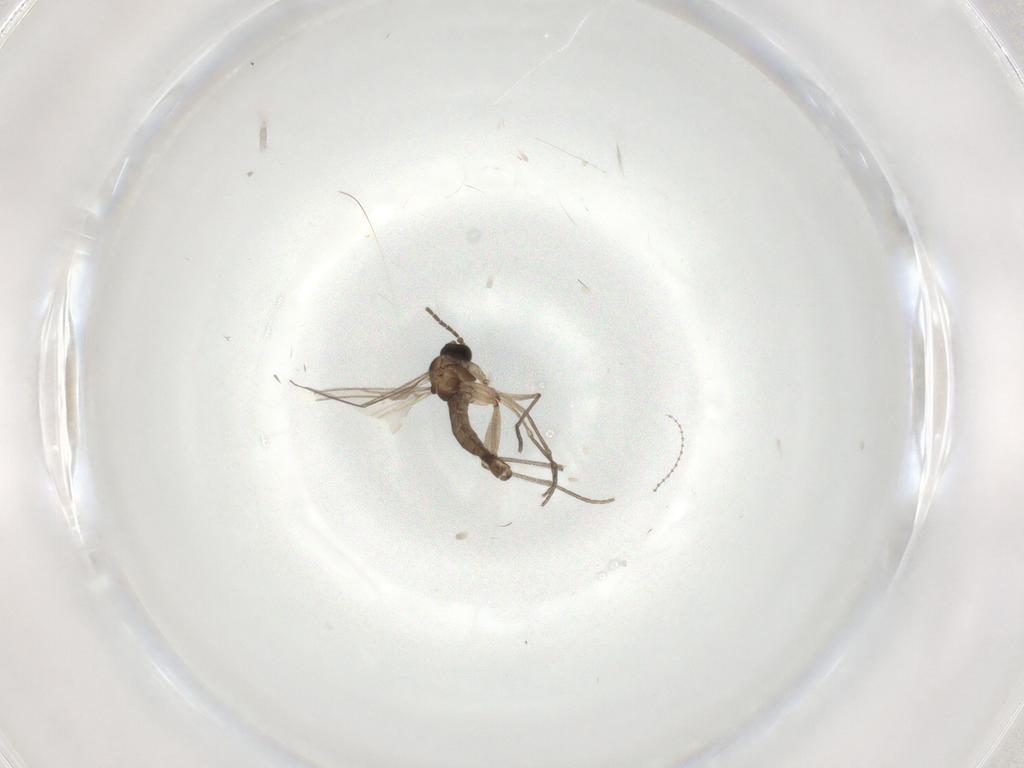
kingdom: Animalia
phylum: Arthropoda
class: Insecta
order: Diptera
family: Sciaridae
